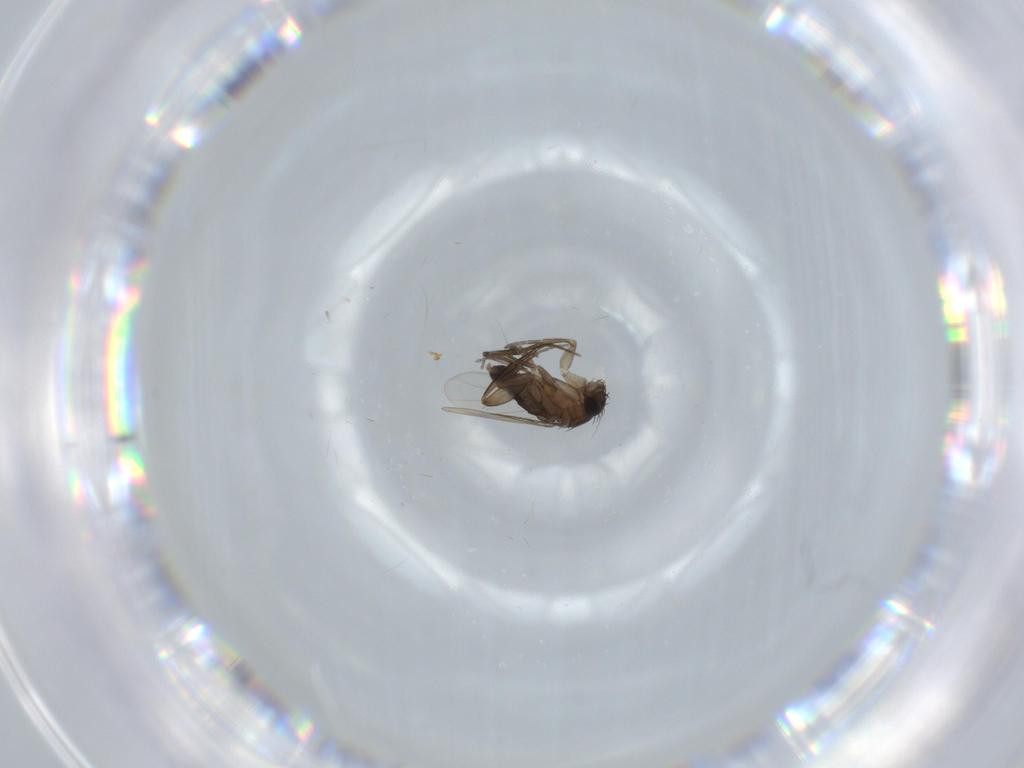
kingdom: Animalia
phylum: Arthropoda
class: Insecta
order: Diptera
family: Phoridae
